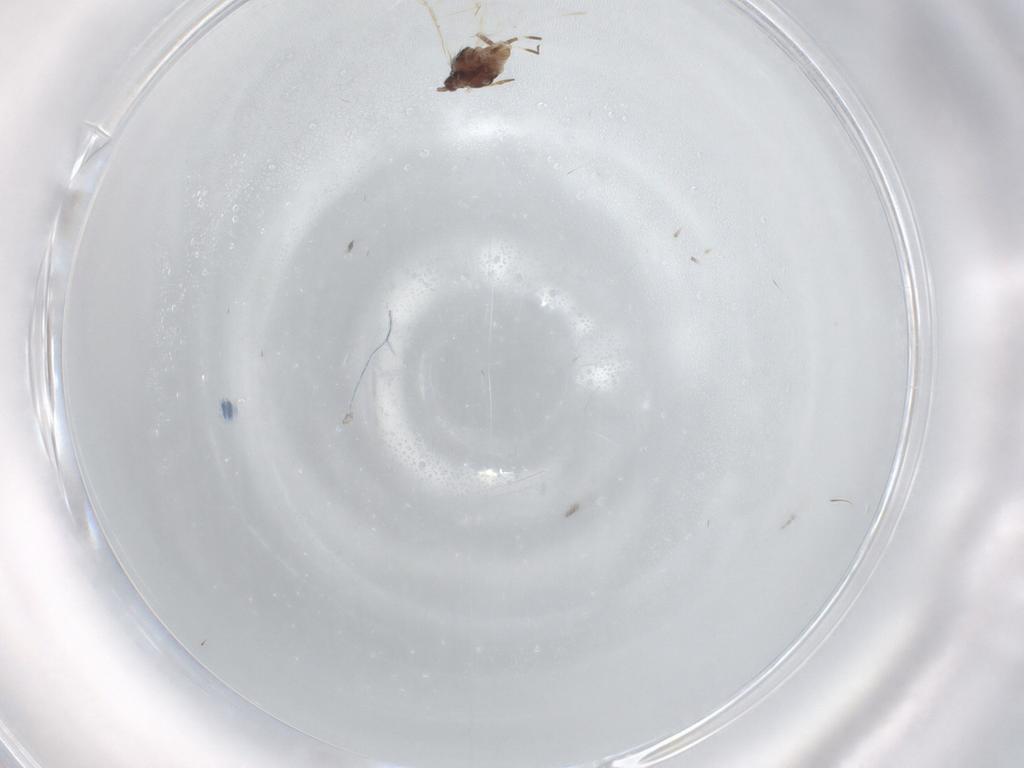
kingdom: Animalia
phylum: Arthropoda
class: Insecta
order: Hemiptera
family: Aphididae
